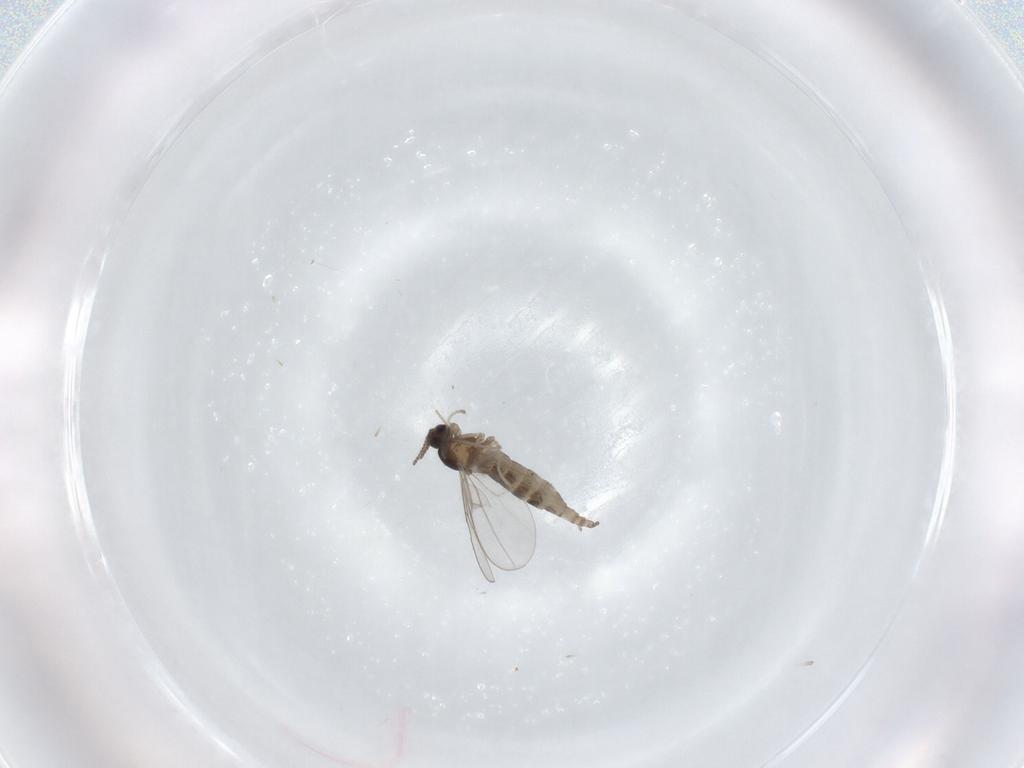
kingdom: Animalia
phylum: Arthropoda
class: Insecta
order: Diptera
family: Cecidomyiidae
